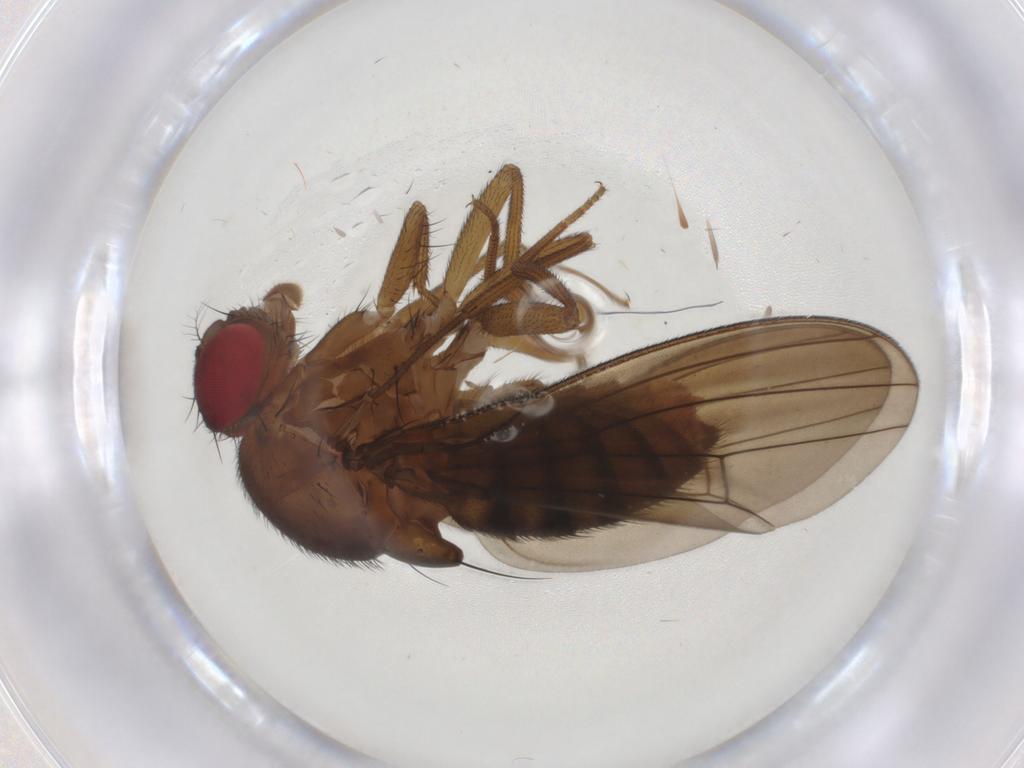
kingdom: Animalia
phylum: Arthropoda
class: Insecta
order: Diptera
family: Drosophilidae
